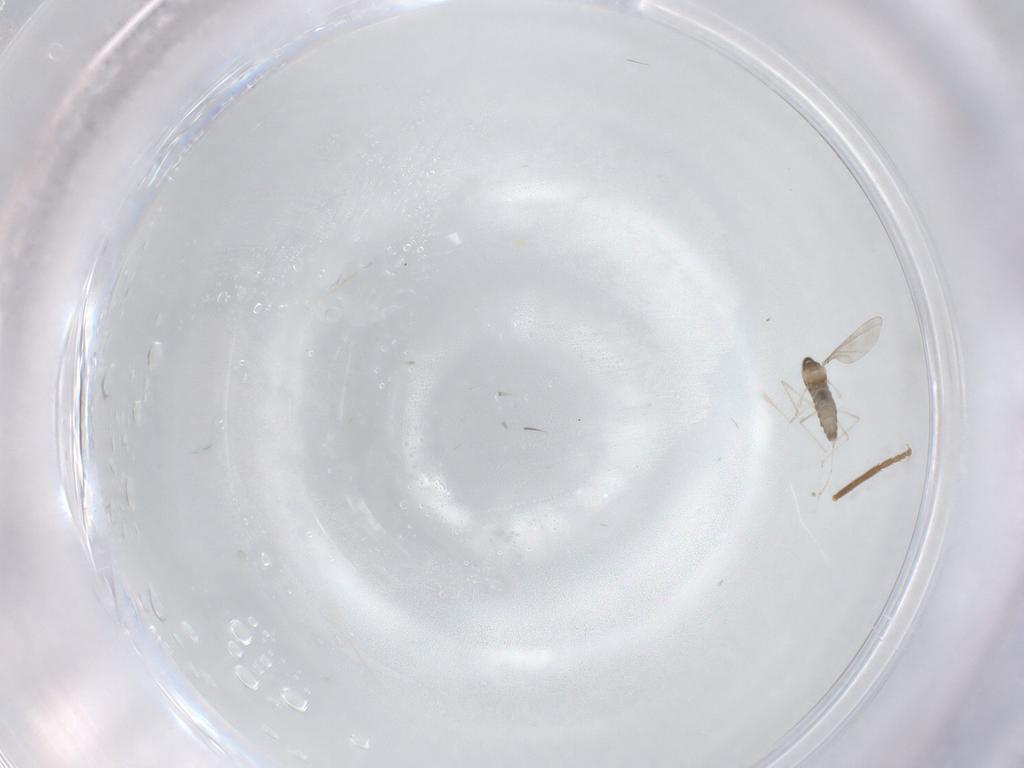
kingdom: Animalia
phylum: Arthropoda
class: Insecta
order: Diptera
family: Cecidomyiidae
